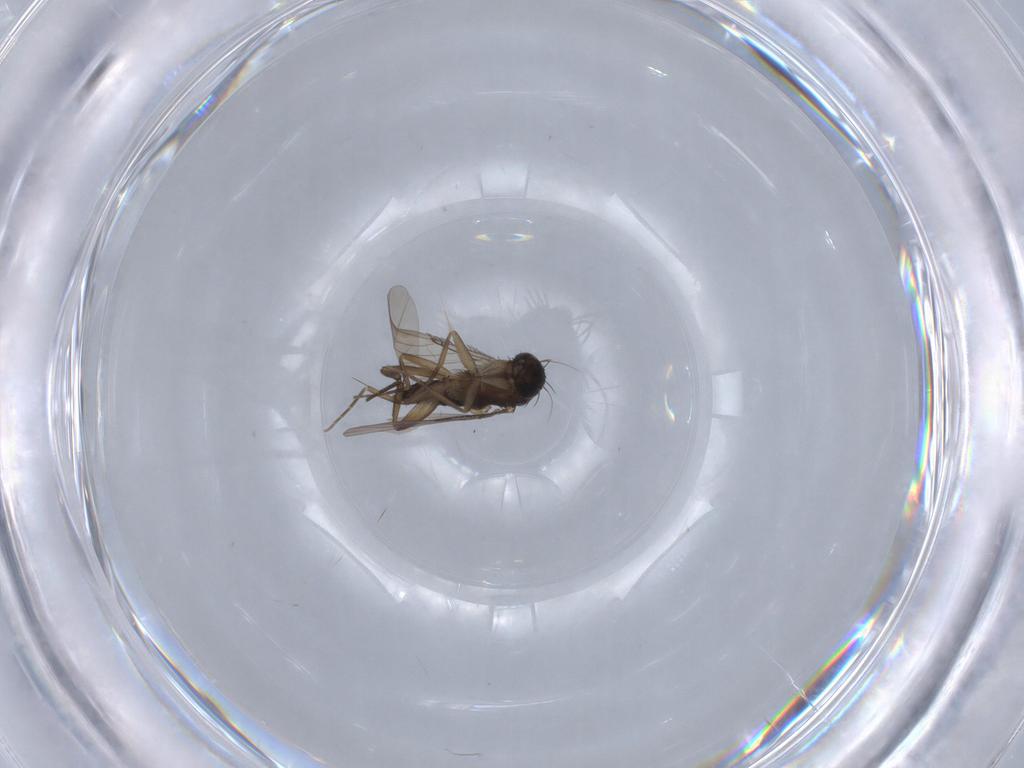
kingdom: Animalia
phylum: Arthropoda
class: Insecta
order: Diptera
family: Phoridae
